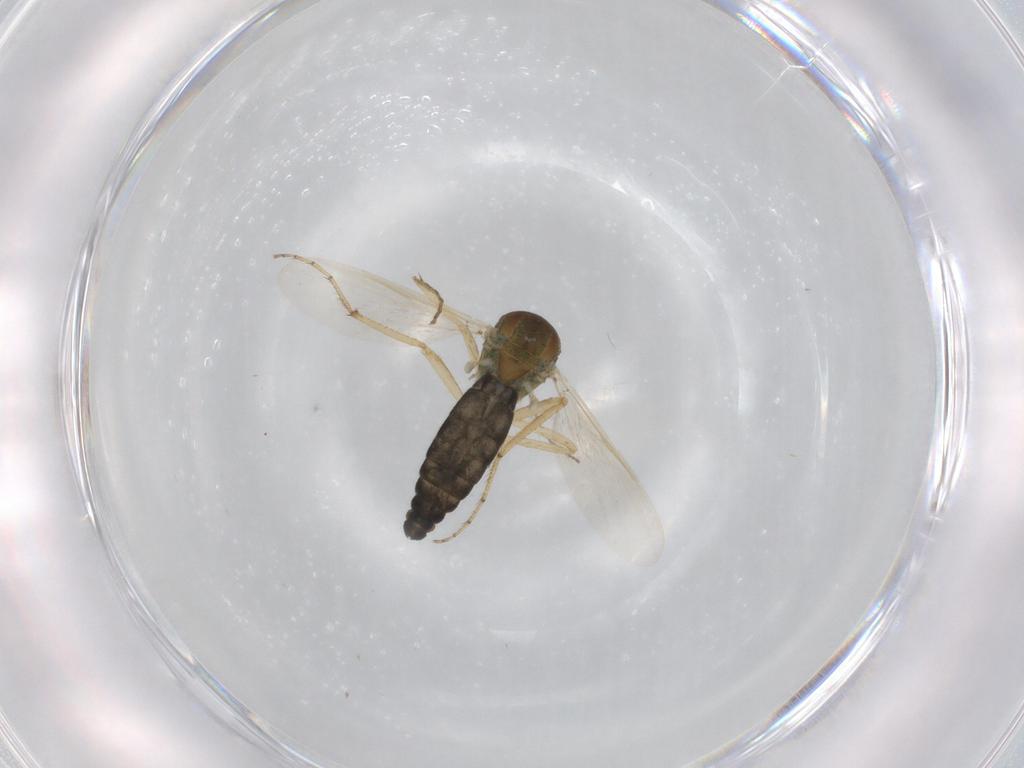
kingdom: Animalia
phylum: Arthropoda
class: Insecta
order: Diptera
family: Ceratopogonidae
